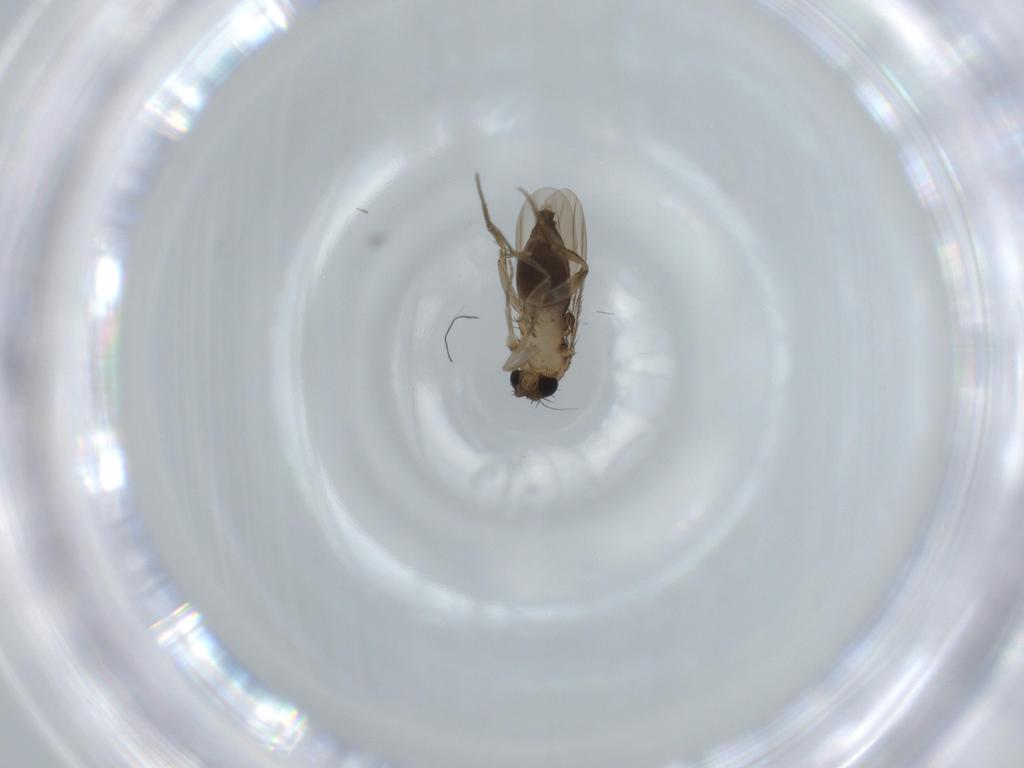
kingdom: Animalia
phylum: Arthropoda
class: Insecta
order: Diptera
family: Phoridae
